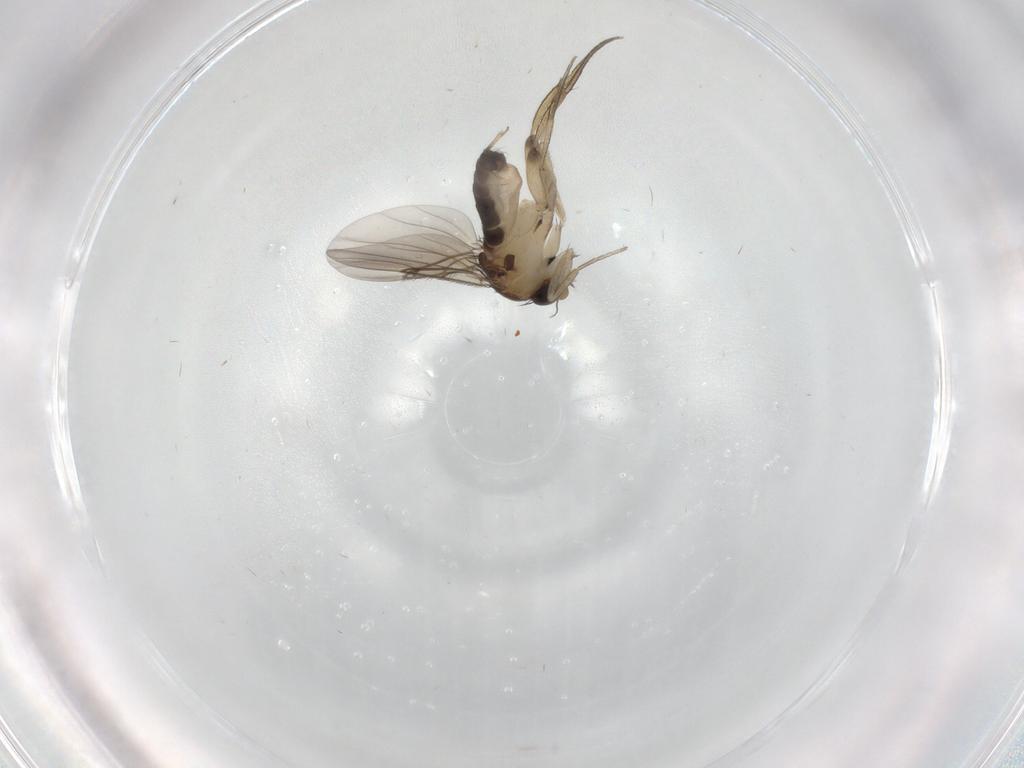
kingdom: Animalia
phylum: Arthropoda
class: Insecta
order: Diptera
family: Phoridae
